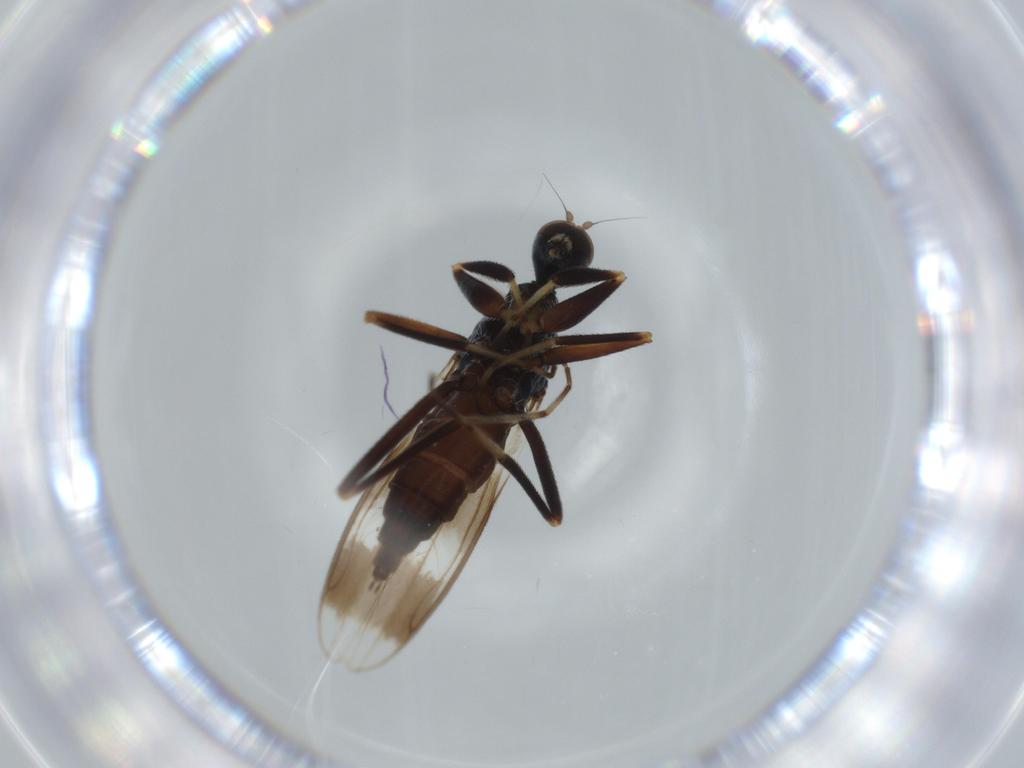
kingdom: Animalia
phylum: Arthropoda
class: Insecta
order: Diptera
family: Hybotidae
